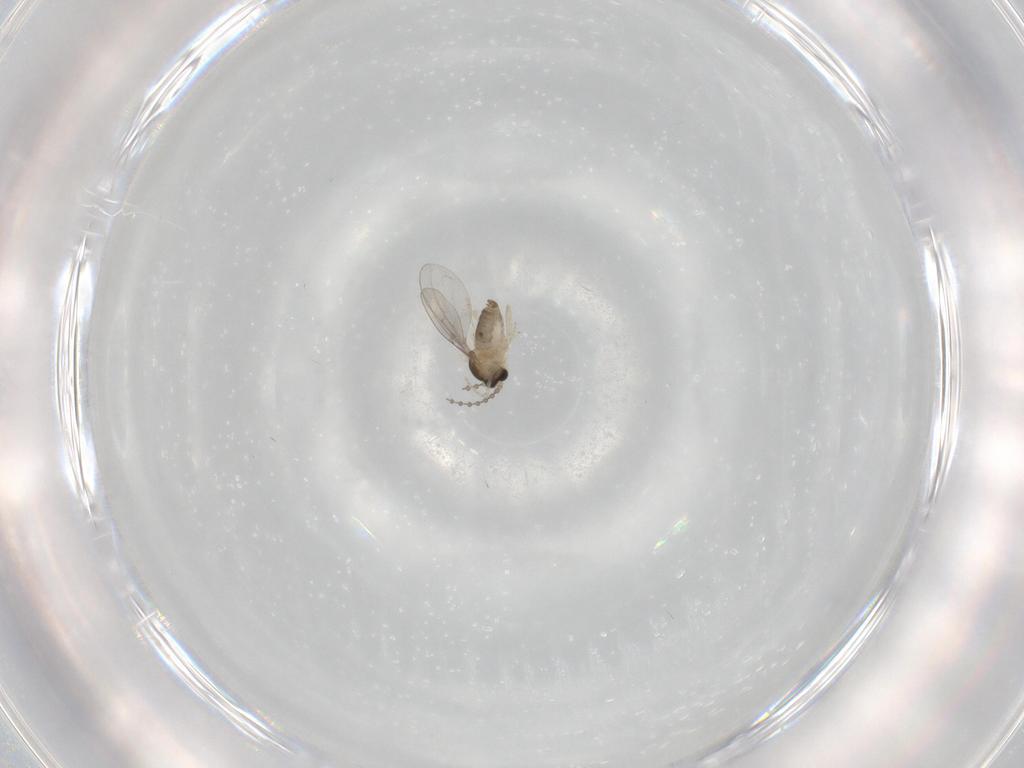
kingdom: Animalia
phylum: Arthropoda
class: Insecta
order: Diptera
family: Cecidomyiidae
